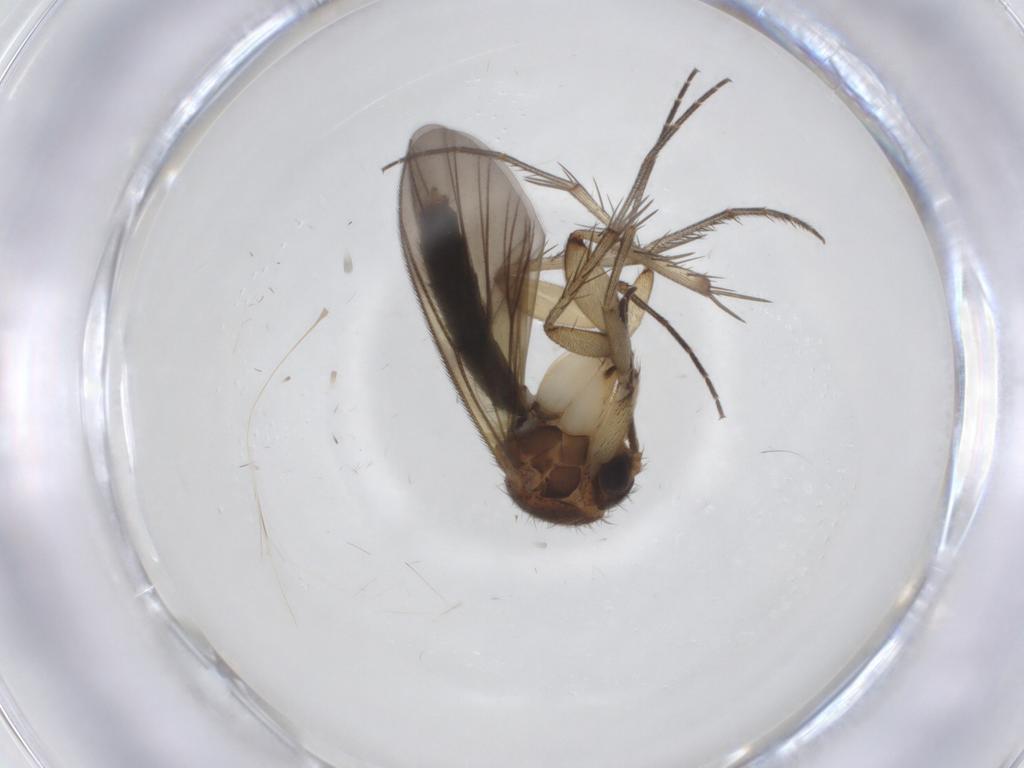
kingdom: Animalia
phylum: Arthropoda
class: Insecta
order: Diptera
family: Mycetophilidae
